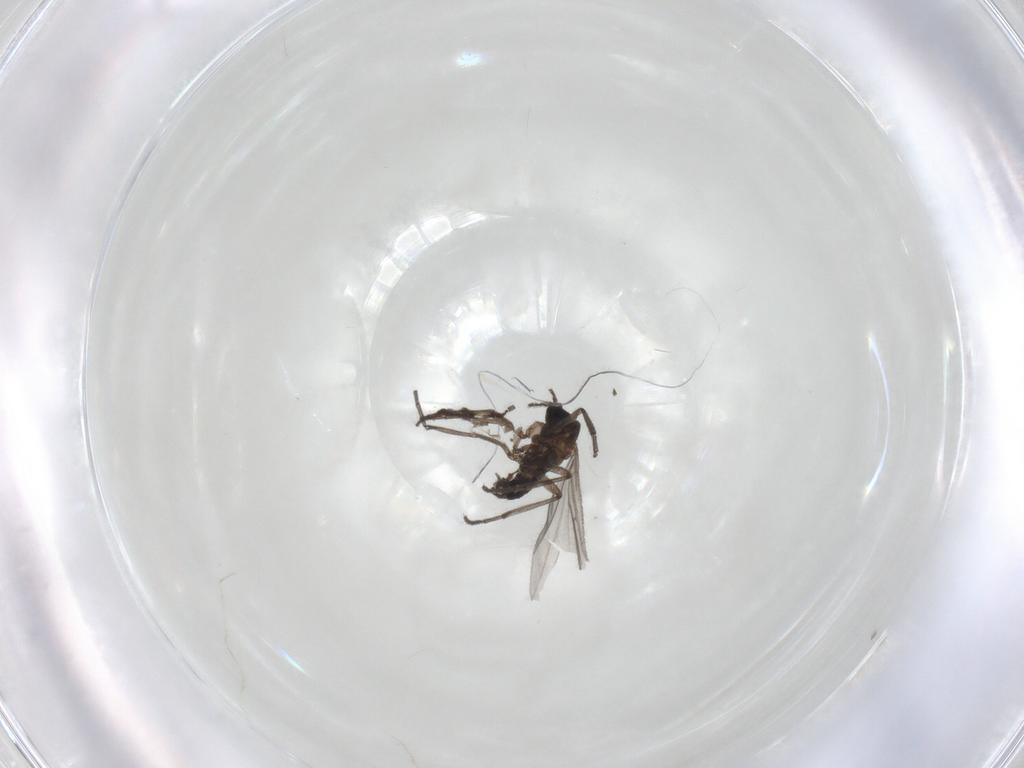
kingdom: Animalia
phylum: Arthropoda
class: Insecta
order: Diptera
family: Sciaridae
